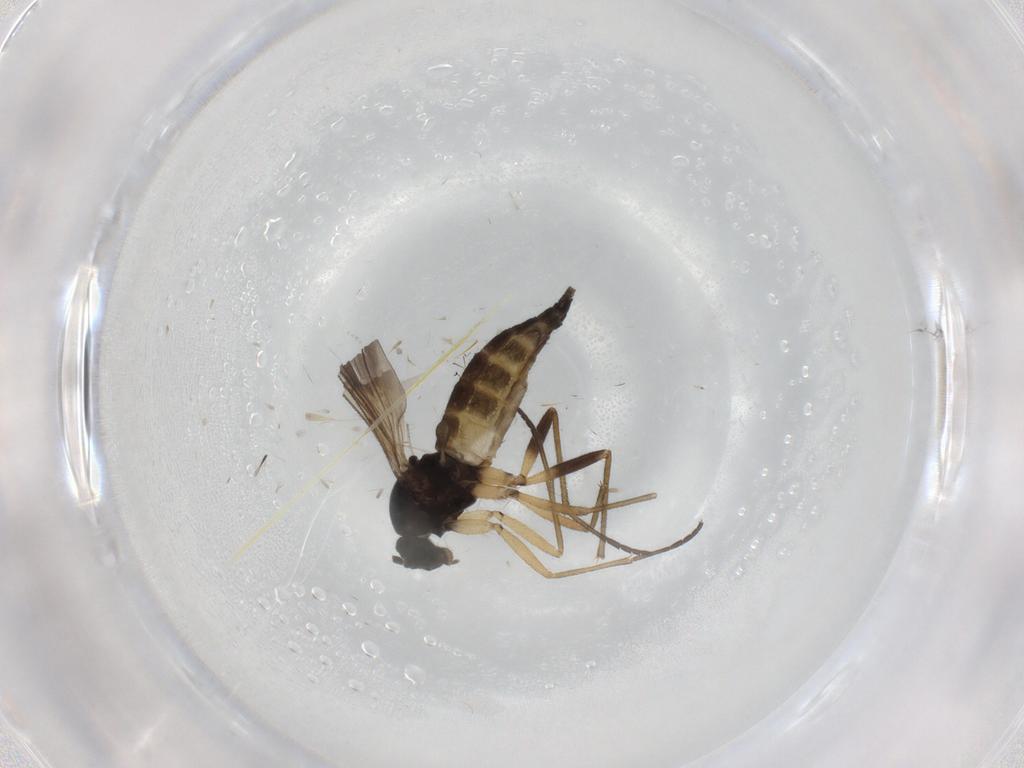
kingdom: Animalia
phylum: Arthropoda
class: Insecta
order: Diptera
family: Sciaridae
